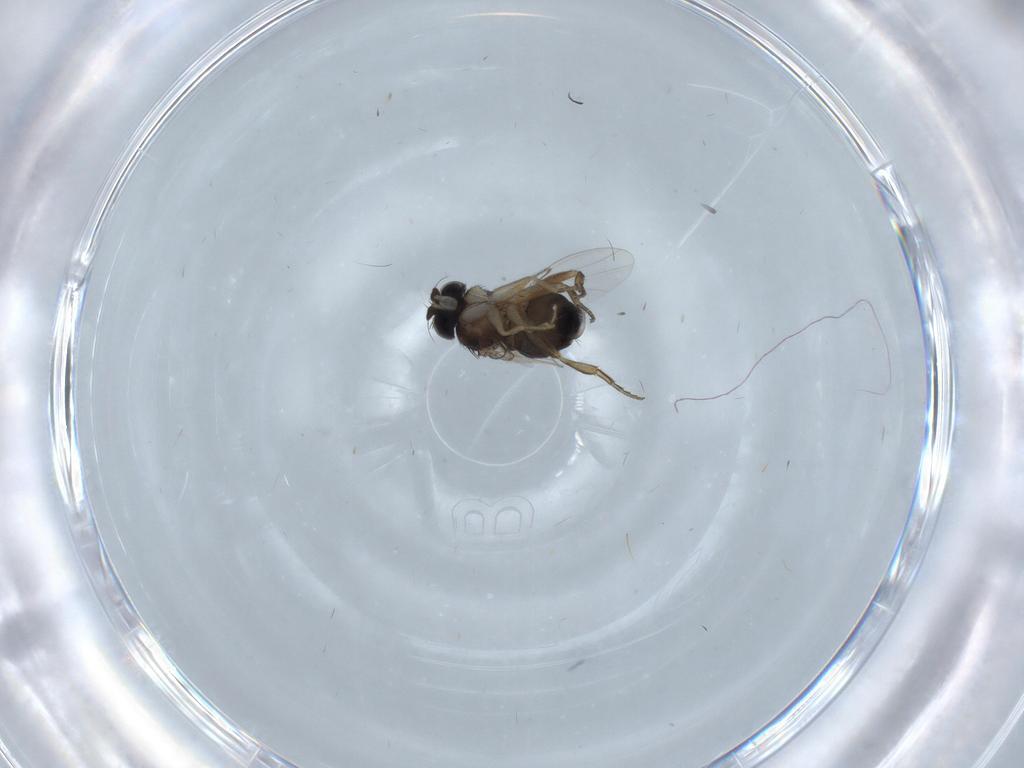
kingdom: Animalia
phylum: Arthropoda
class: Insecta
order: Diptera
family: Phoridae
